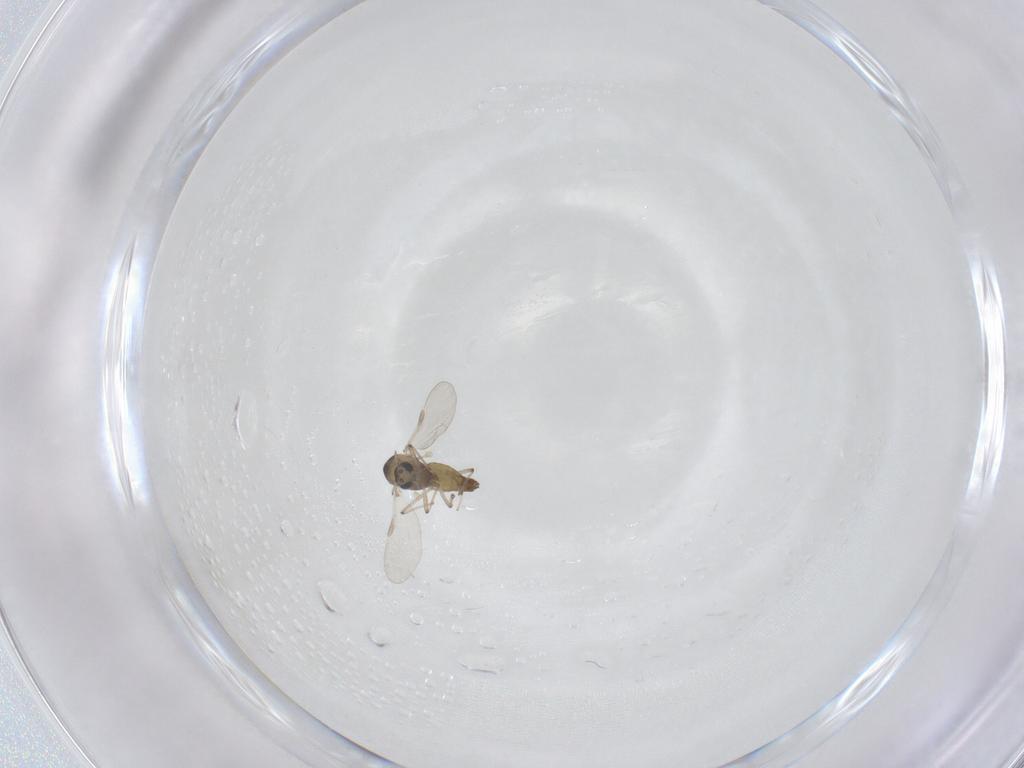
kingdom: Animalia
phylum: Arthropoda
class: Insecta
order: Diptera
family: Chironomidae
